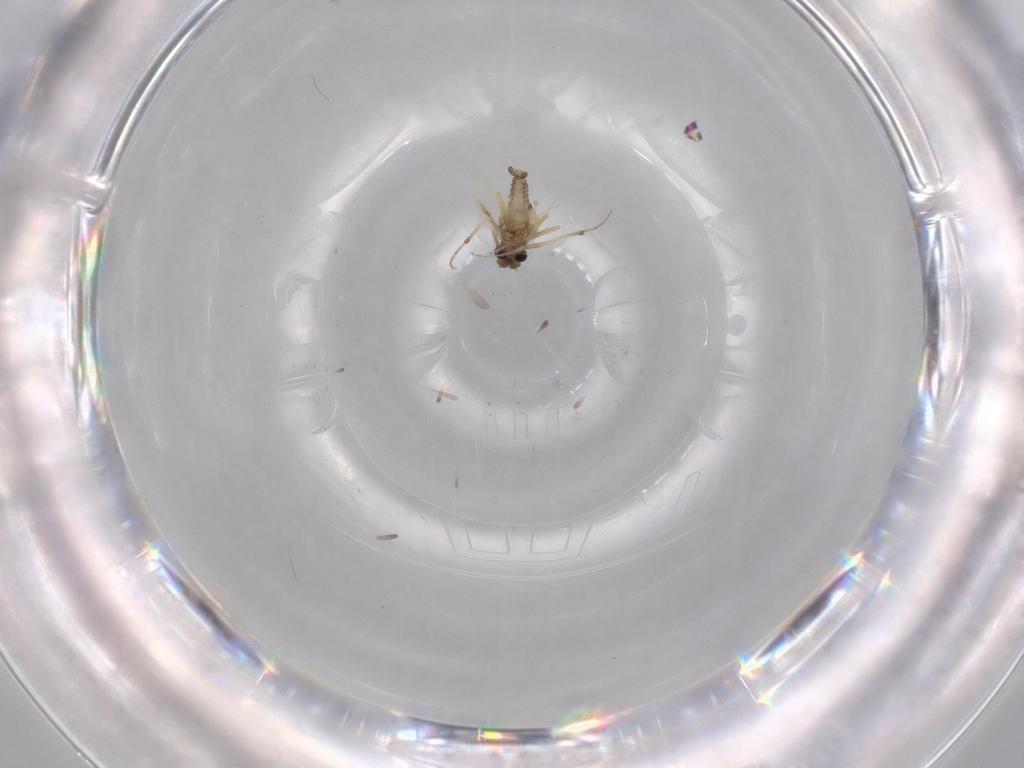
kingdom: Animalia
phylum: Arthropoda
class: Insecta
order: Diptera
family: Ceratopogonidae
